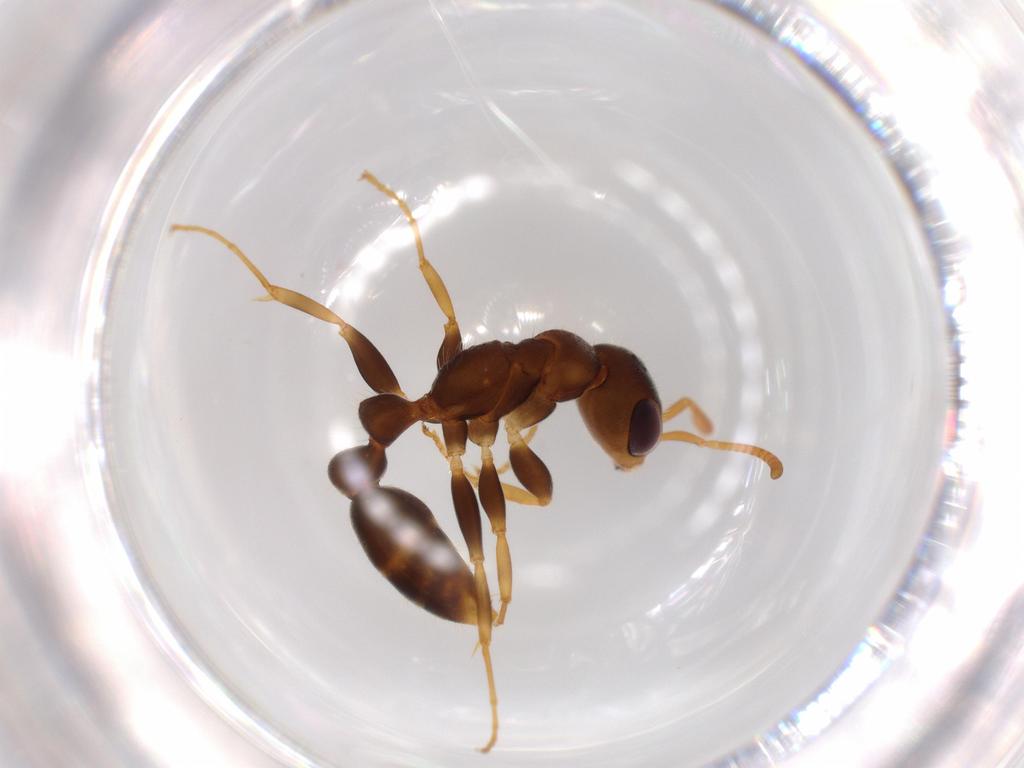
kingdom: Animalia
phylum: Arthropoda
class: Insecta
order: Hymenoptera
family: Formicidae
